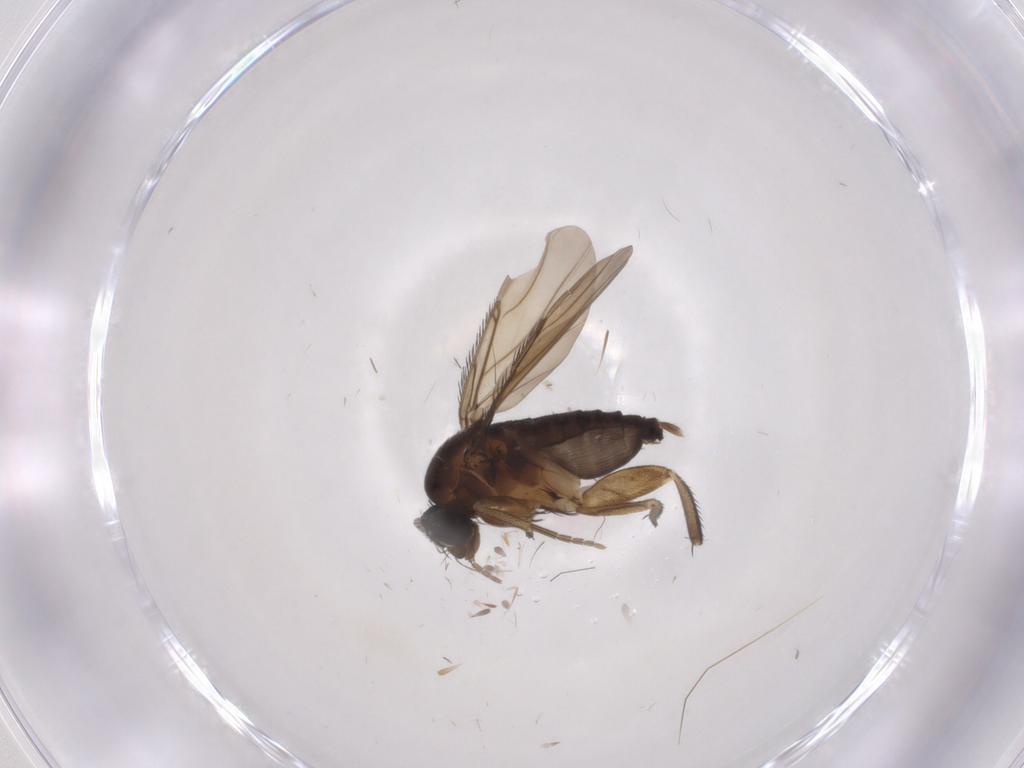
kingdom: Animalia
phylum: Arthropoda
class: Insecta
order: Diptera
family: Phoridae
